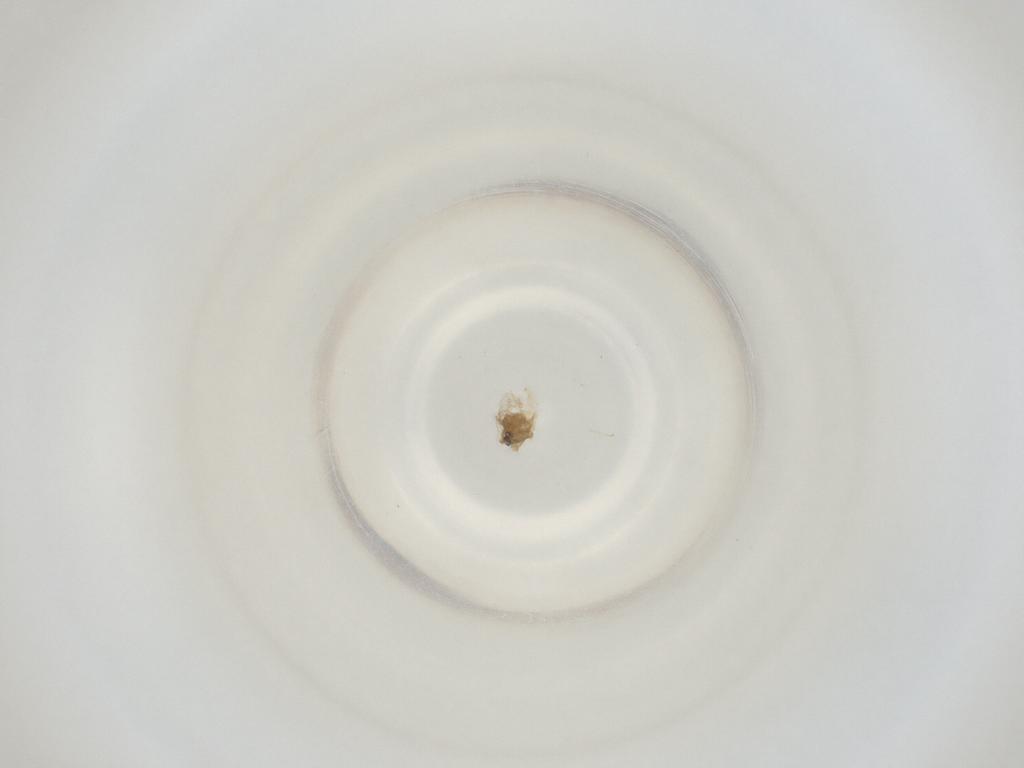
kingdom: Animalia
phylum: Arthropoda
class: Insecta
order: Diptera
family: Cecidomyiidae
